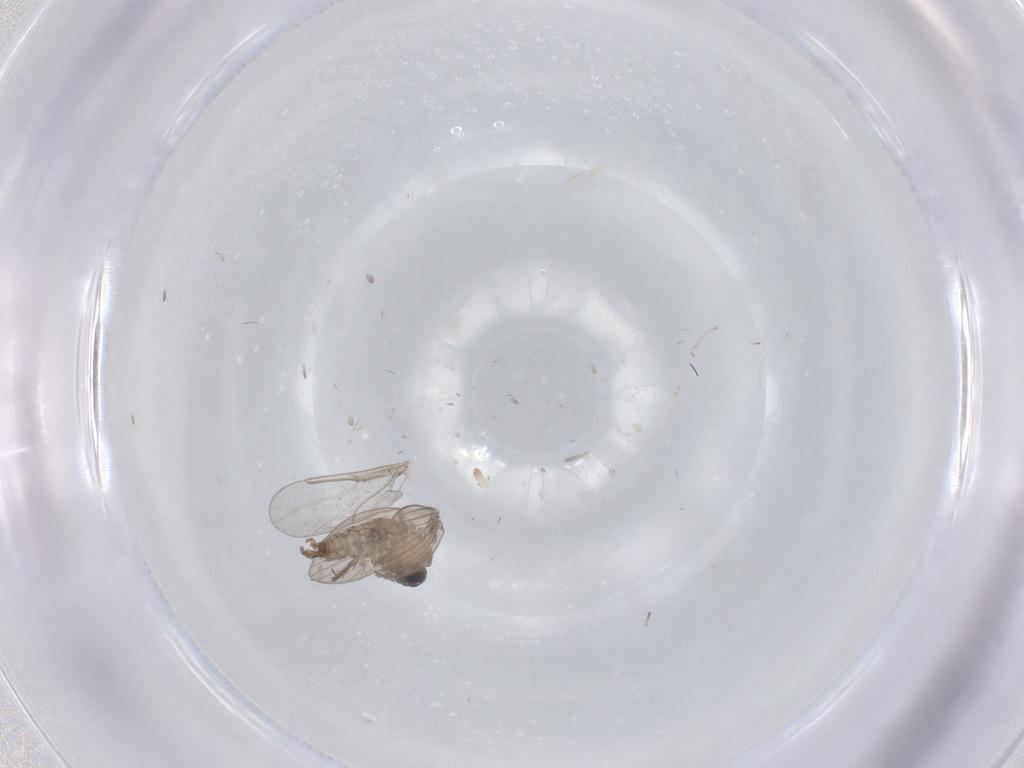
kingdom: Animalia
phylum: Arthropoda
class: Insecta
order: Diptera
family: Psychodidae
